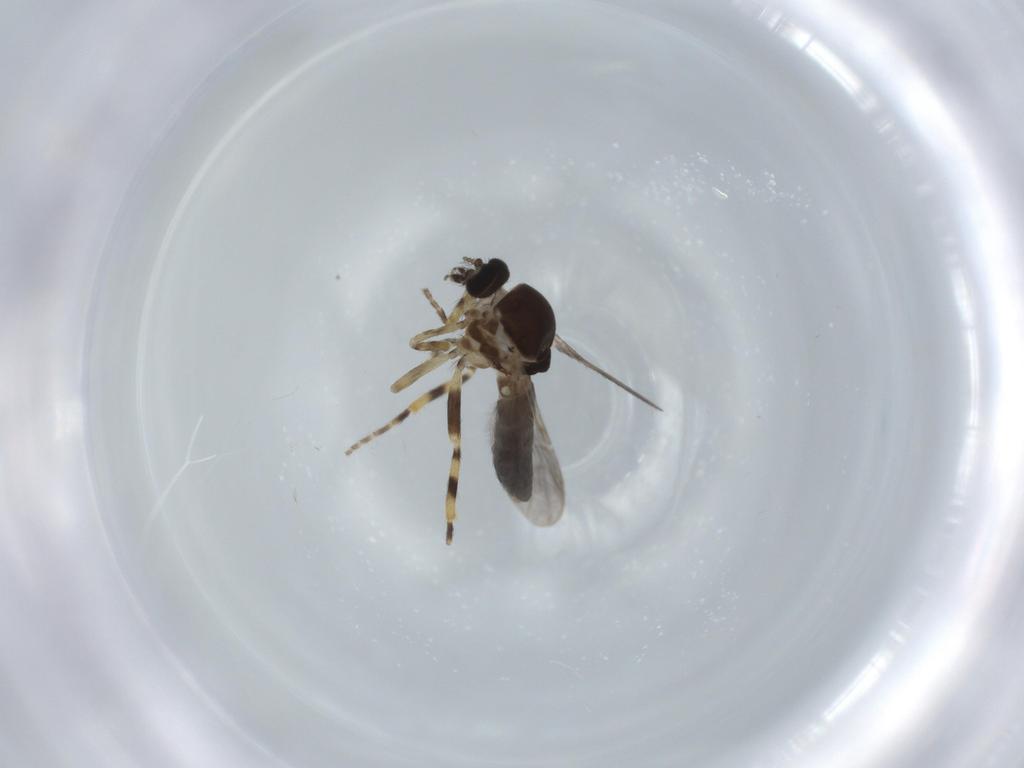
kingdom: Animalia
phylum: Arthropoda
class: Insecta
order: Diptera
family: Ceratopogonidae
